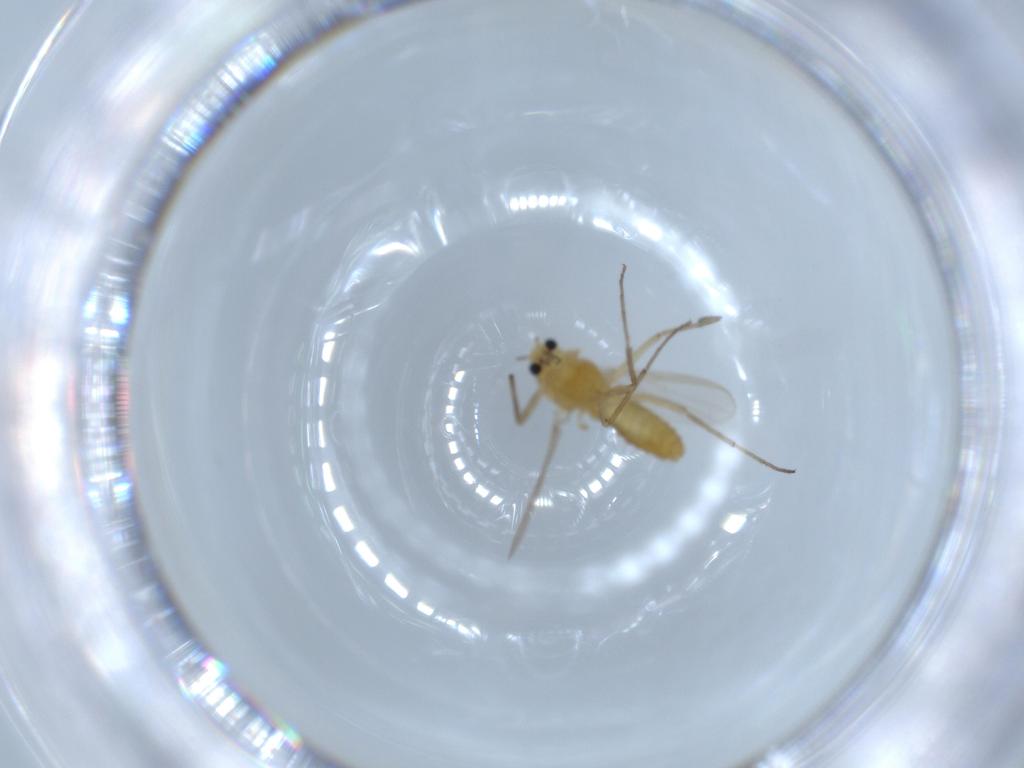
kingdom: Animalia
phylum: Arthropoda
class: Insecta
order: Diptera
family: Chironomidae
